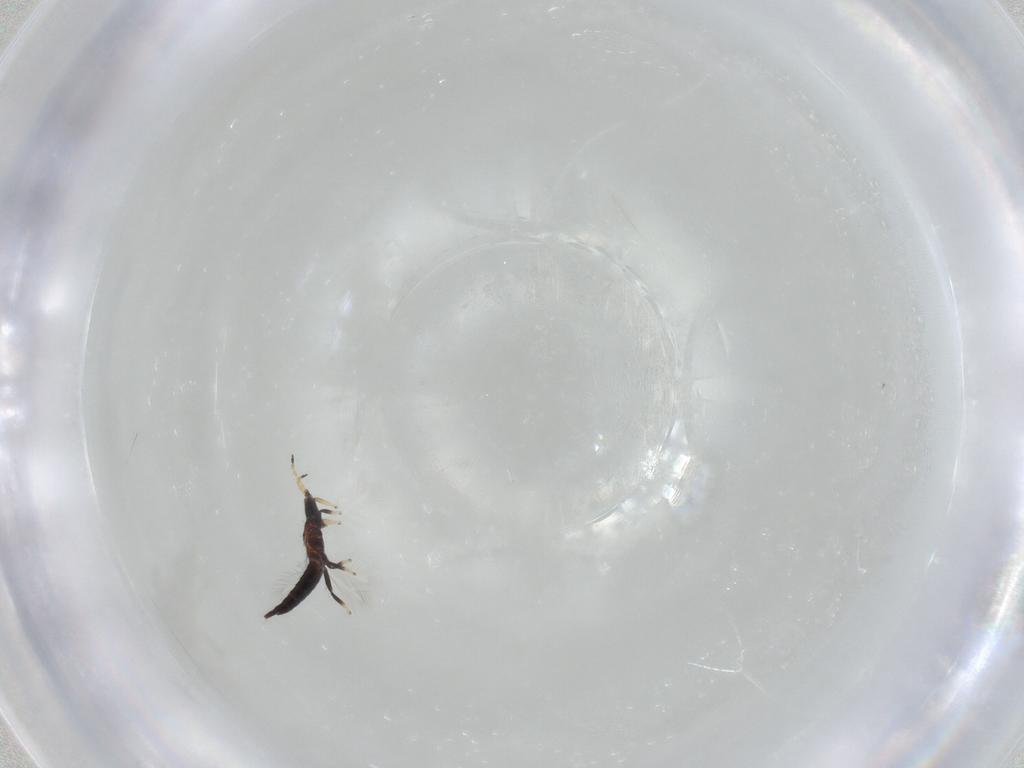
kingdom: Animalia
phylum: Arthropoda
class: Insecta
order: Thysanoptera
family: Phlaeothripidae
